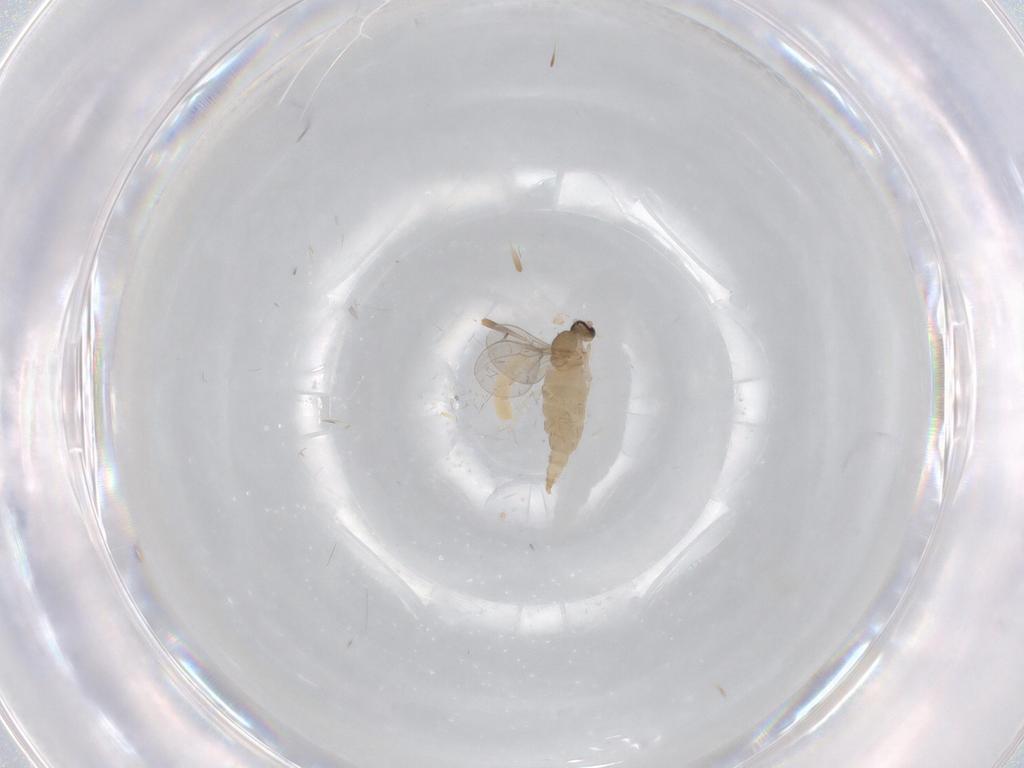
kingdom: Animalia
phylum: Arthropoda
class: Insecta
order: Diptera
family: Cecidomyiidae
